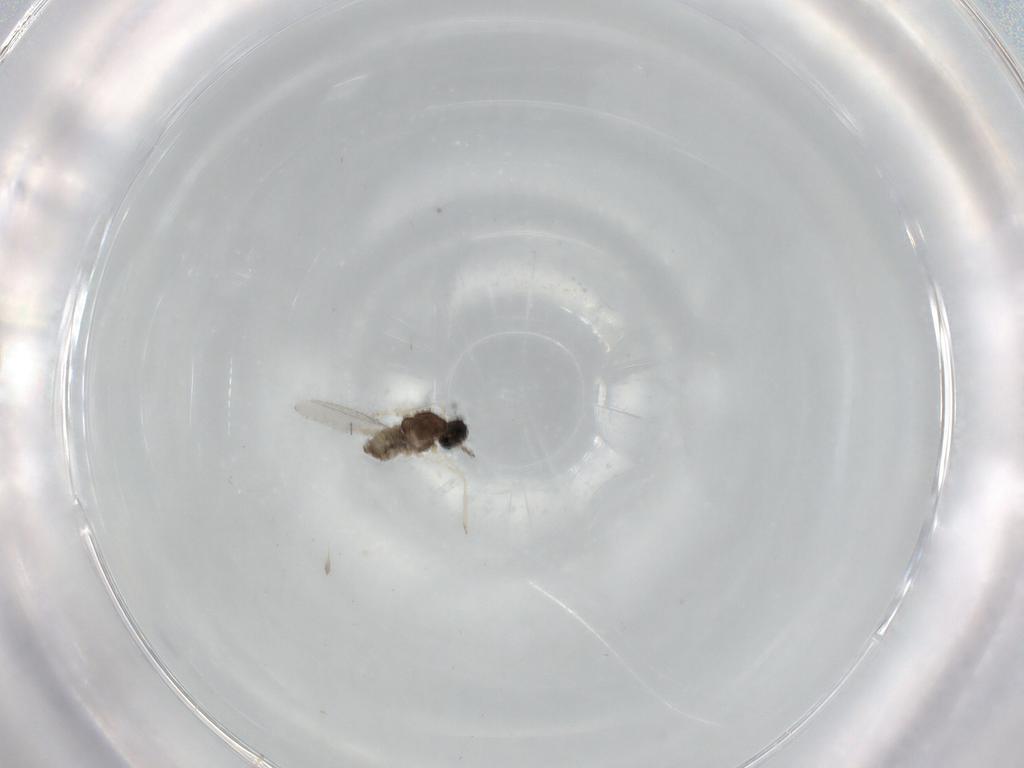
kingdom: Animalia
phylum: Arthropoda
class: Insecta
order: Diptera
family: Cecidomyiidae
